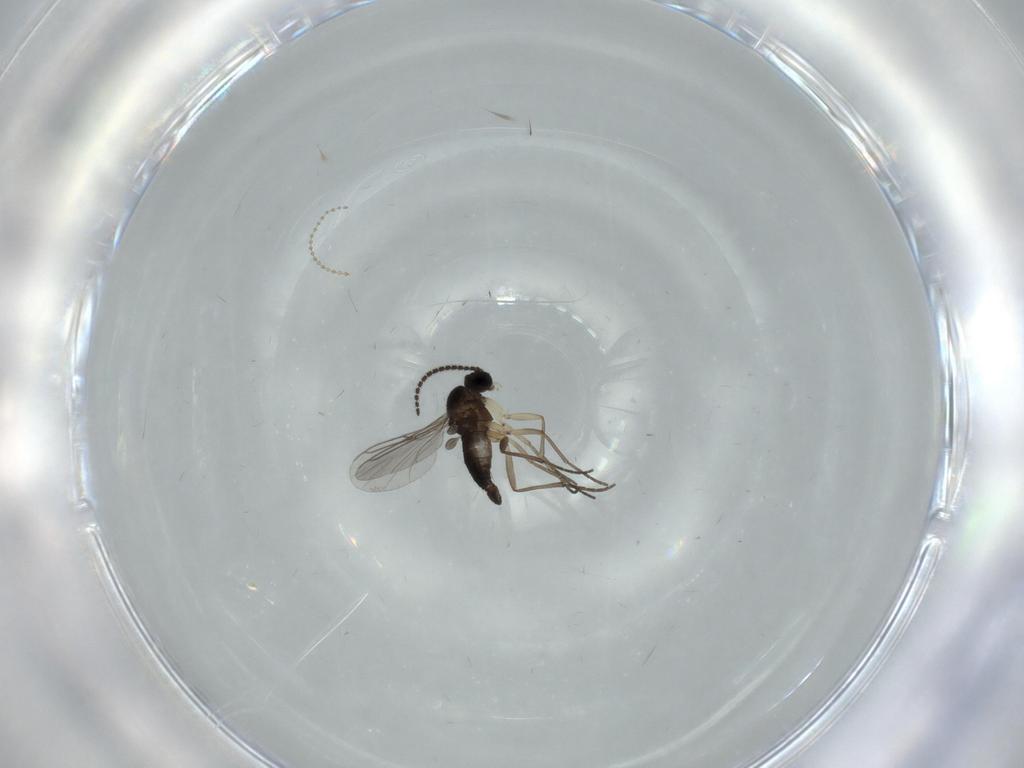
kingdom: Animalia
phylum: Arthropoda
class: Insecta
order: Diptera
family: Sciaridae
